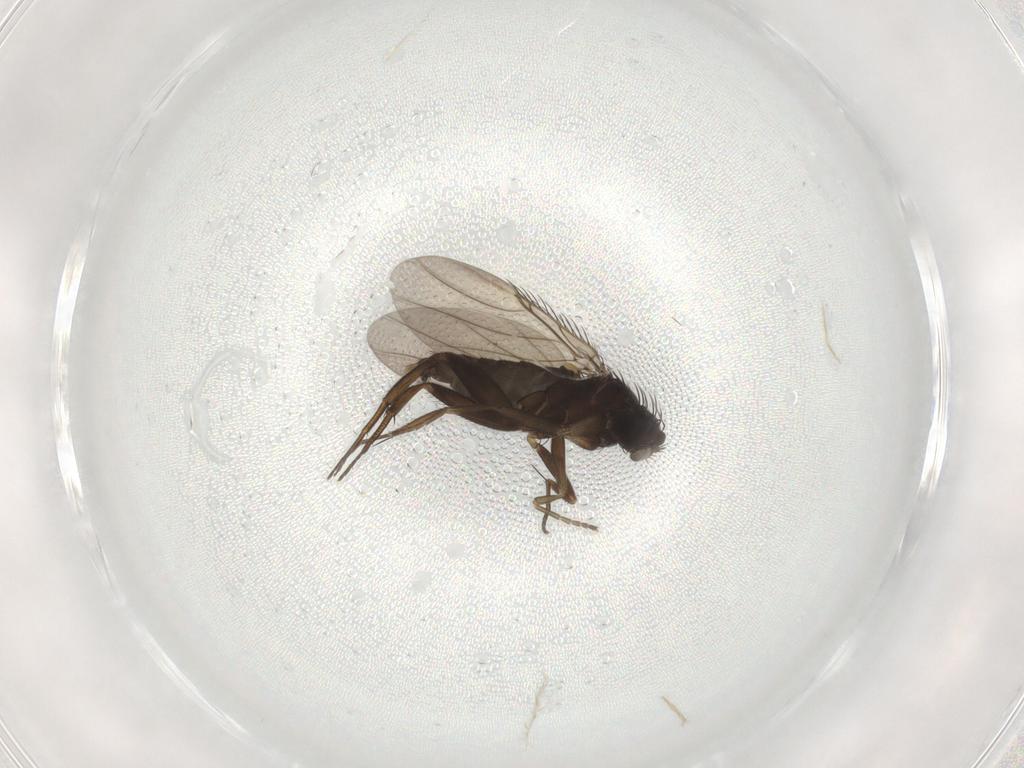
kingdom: Animalia
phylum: Arthropoda
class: Insecta
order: Diptera
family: Phoridae
